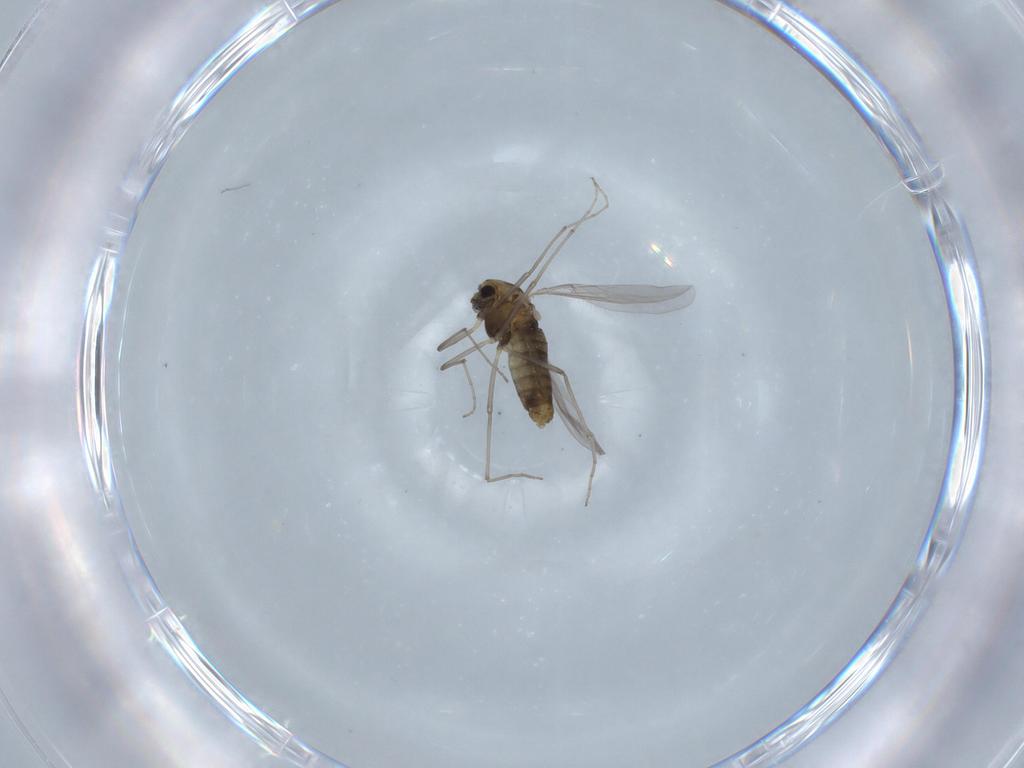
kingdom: Animalia
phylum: Arthropoda
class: Insecta
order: Diptera
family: Chironomidae
